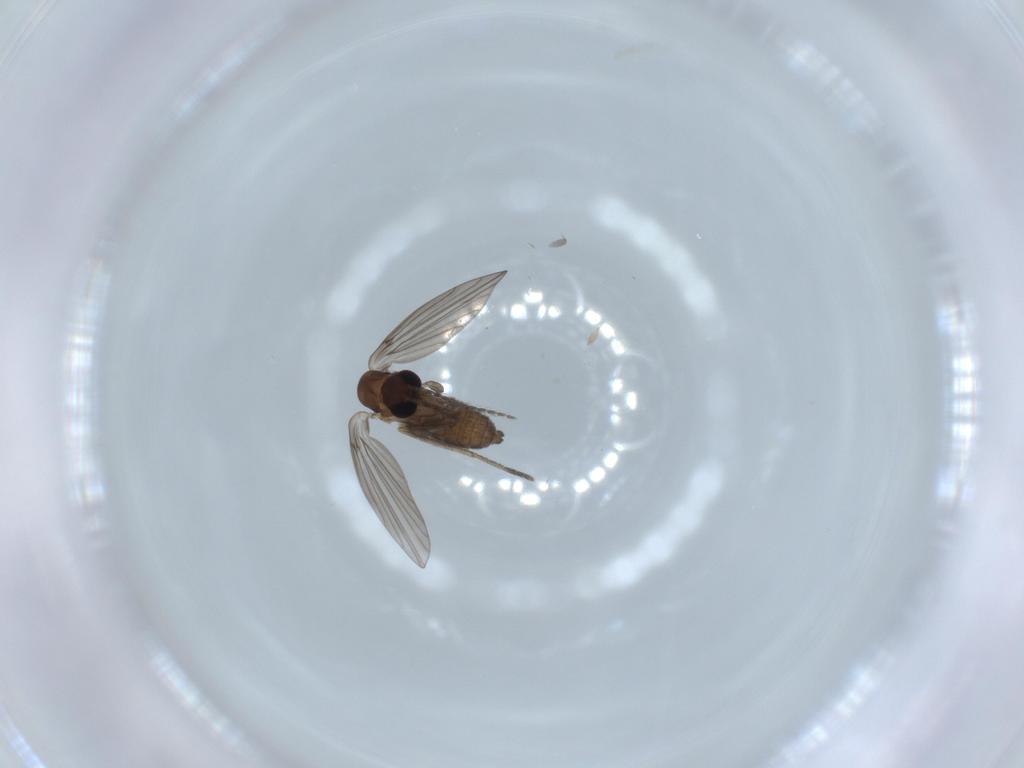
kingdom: Animalia
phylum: Arthropoda
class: Insecta
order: Diptera
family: Psychodidae
